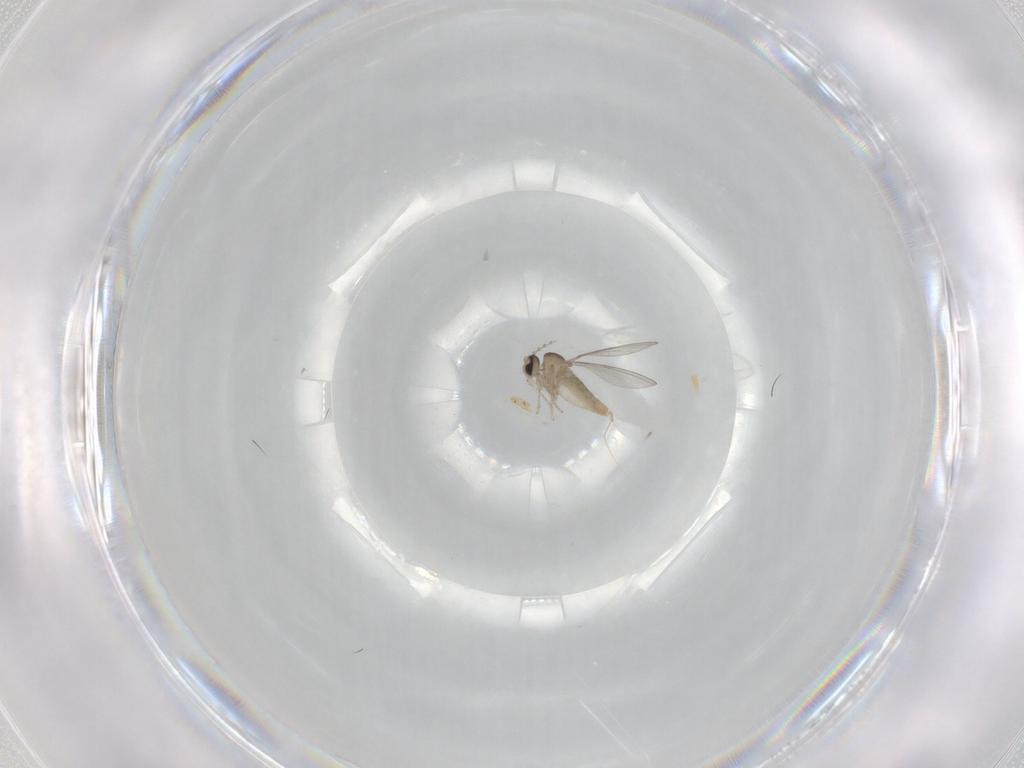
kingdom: Animalia
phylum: Arthropoda
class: Insecta
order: Diptera
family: Cecidomyiidae
